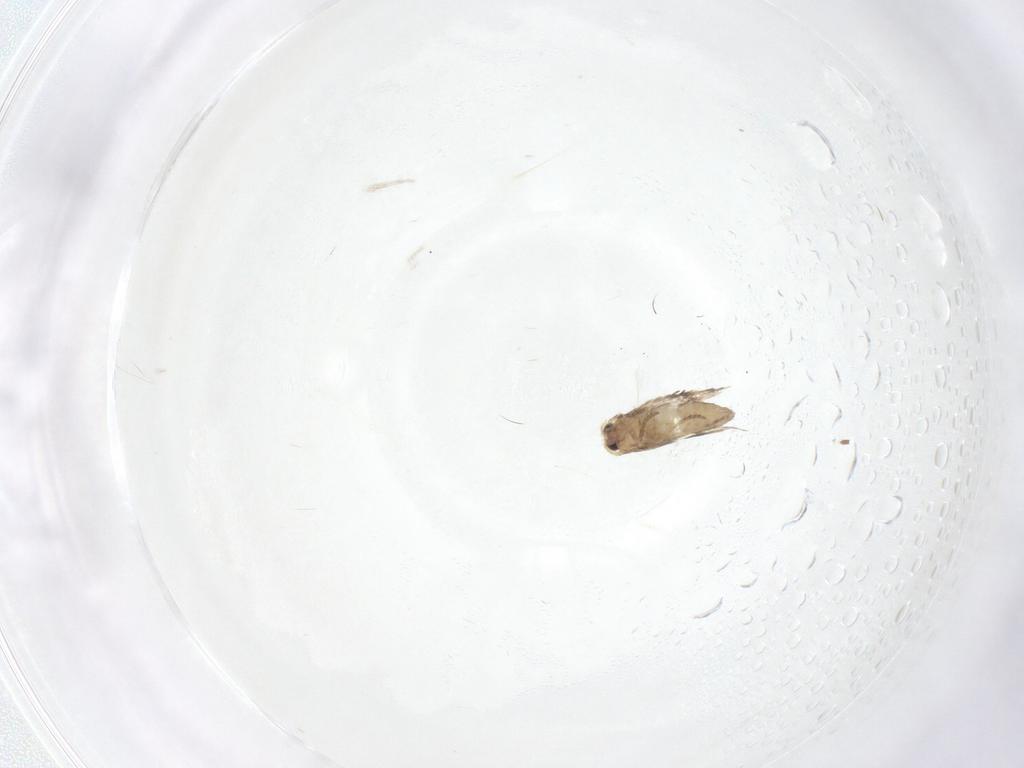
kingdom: Animalia
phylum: Arthropoda
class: Insecta
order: Lepidoptera
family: Nepticulidae
